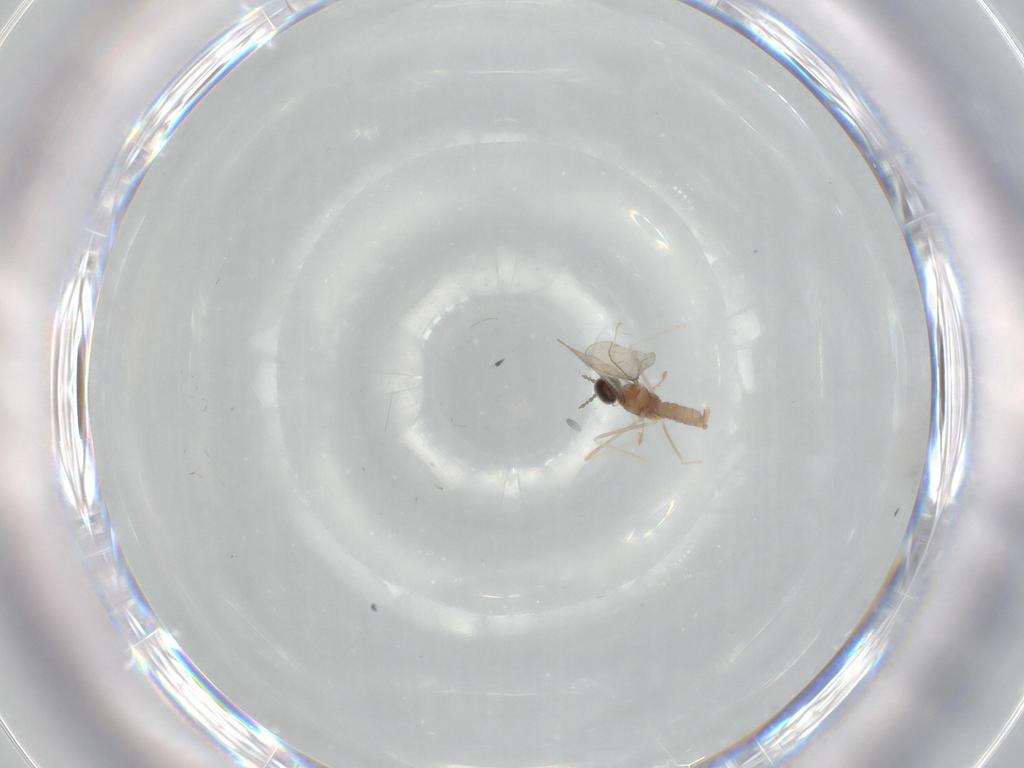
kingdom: Animalia
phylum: Arthropoda
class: Insecta
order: Diptera
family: Cecidomyiidae
